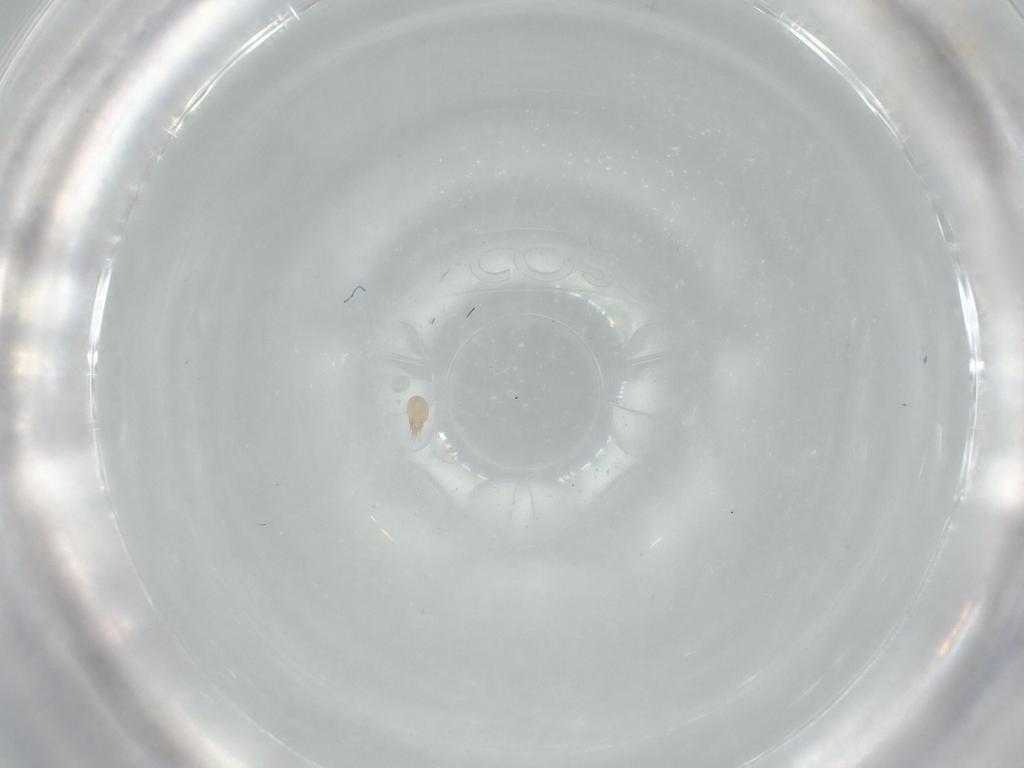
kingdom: Animalia
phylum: Arthropoda
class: Arachnida
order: Sarcoptiformes
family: Acaridae
